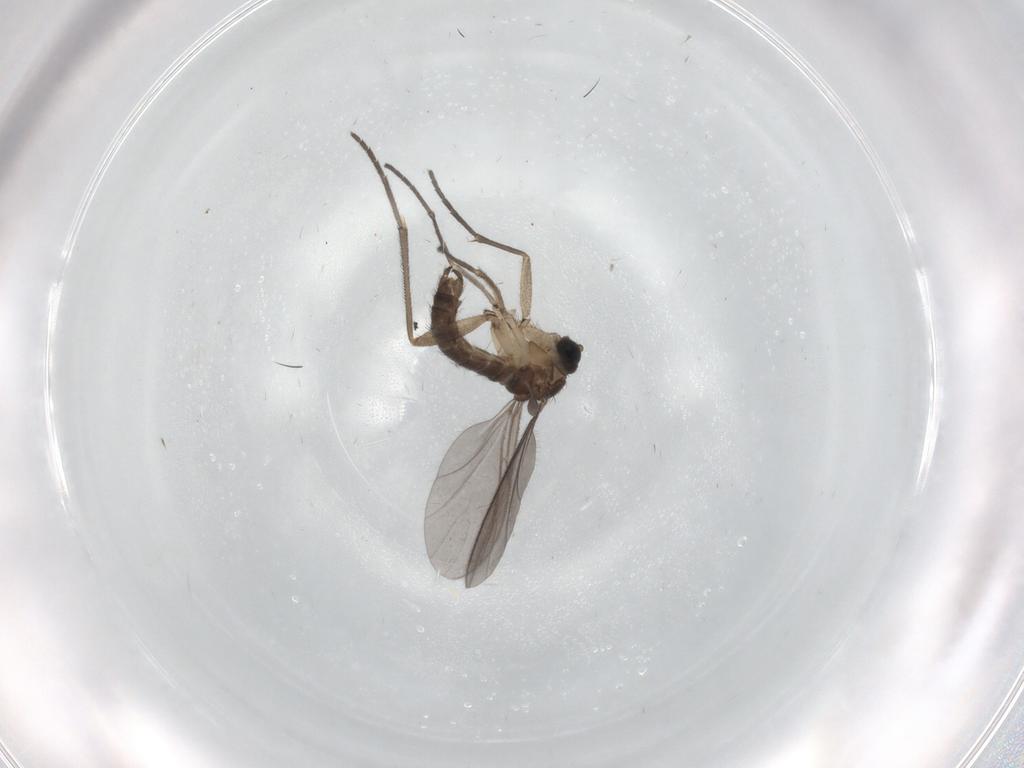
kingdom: Animalia
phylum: Arthropoda
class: Insecta
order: Diptera
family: Sciaridae
